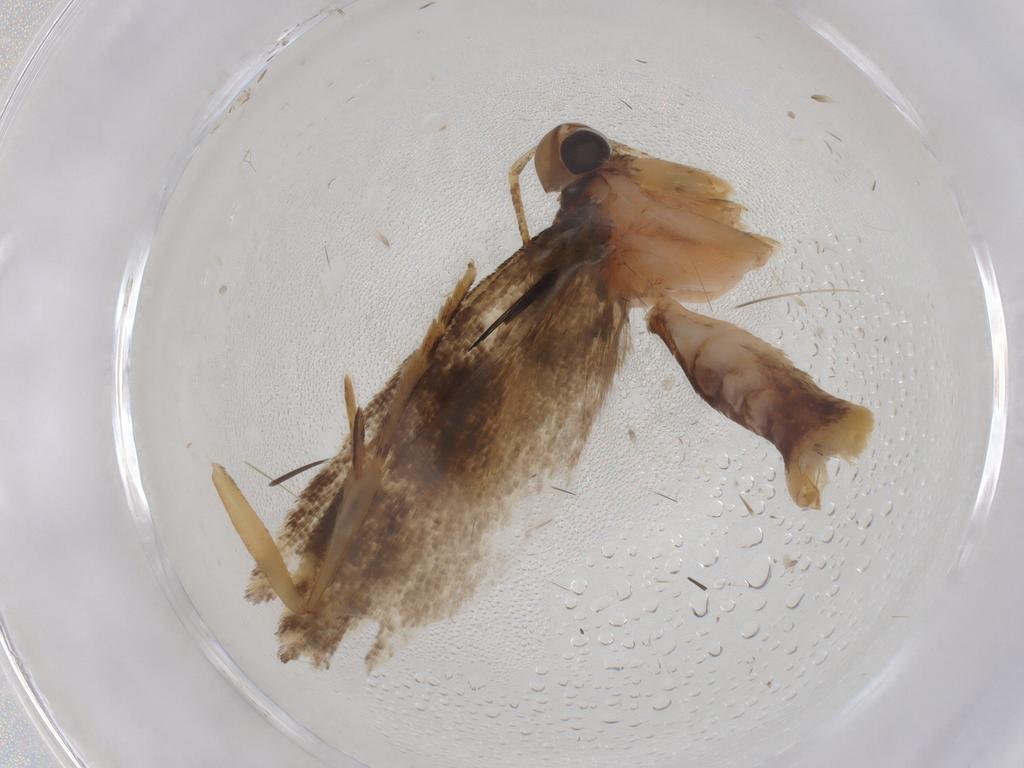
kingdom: Animalia
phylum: Arthropoda
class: Insecta
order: Lepidoptera
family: Gelechiidae
